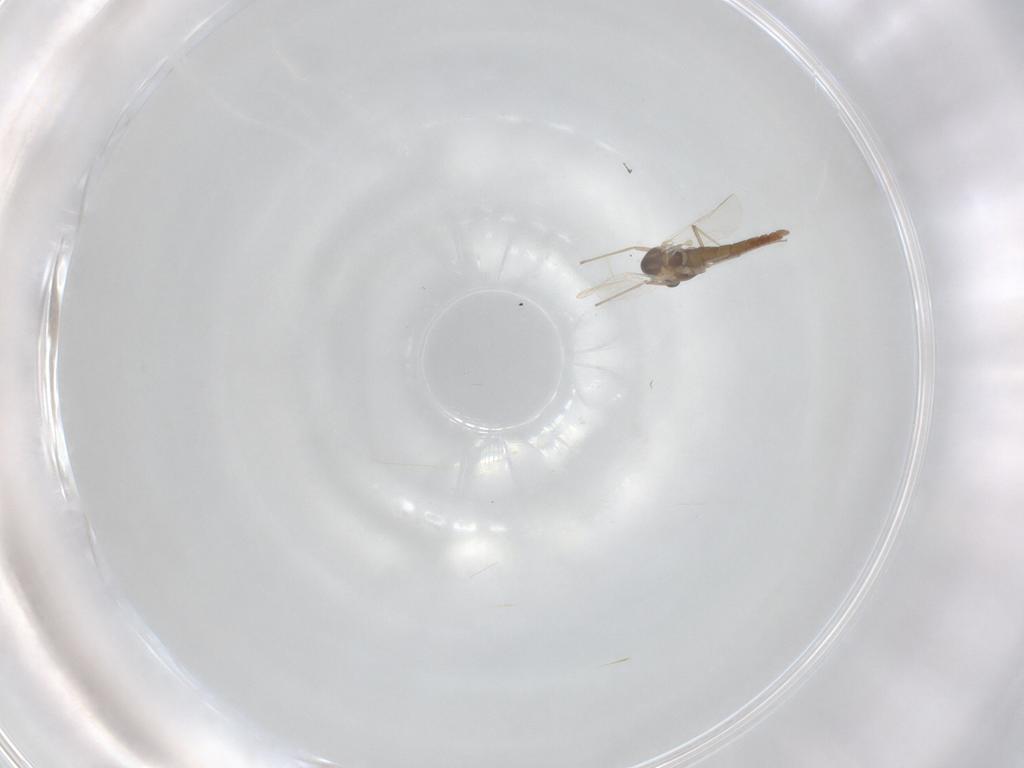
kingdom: Animalia
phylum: Arthropoda
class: Insecta
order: Diptera
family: Chironomidae
